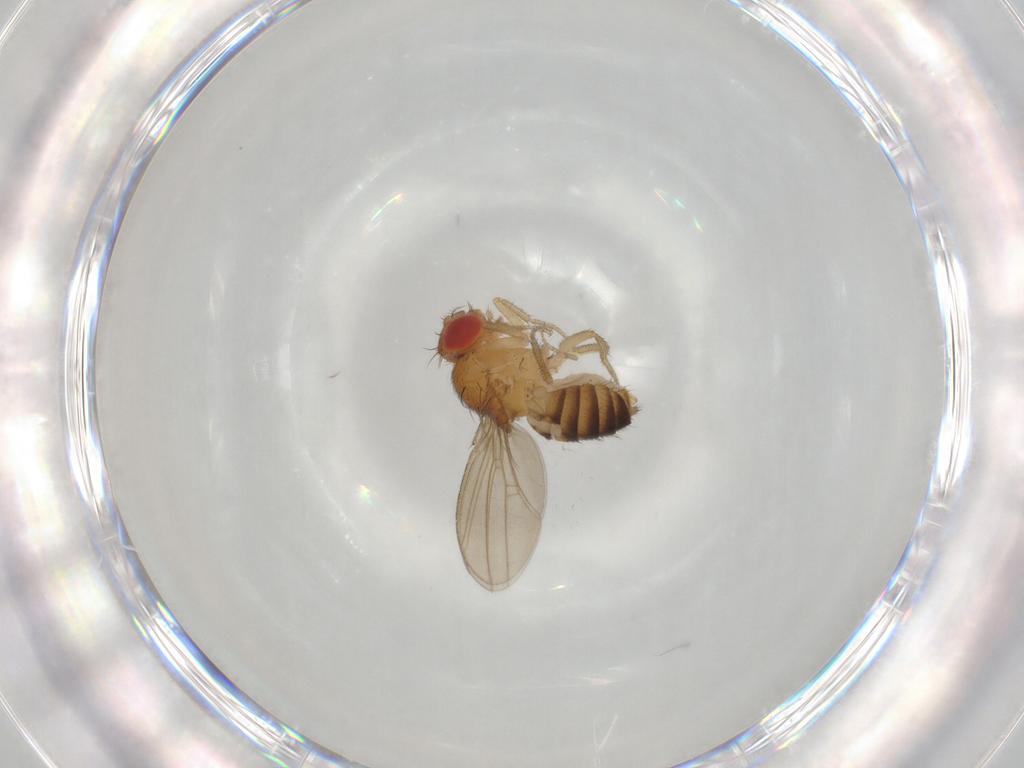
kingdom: Animalia
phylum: Arthropoda
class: Insecta
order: Diptera
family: Drosophilidae
